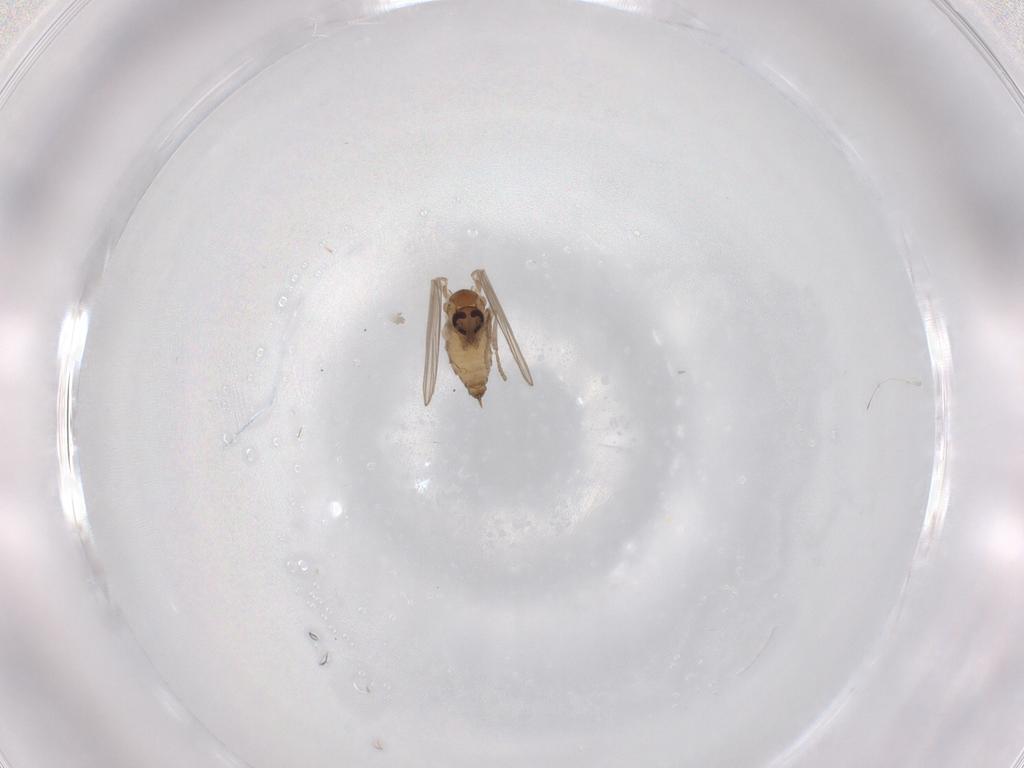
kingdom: Animalia
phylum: Arthropoda
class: Insecta
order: Diptera
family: Psychodidae
